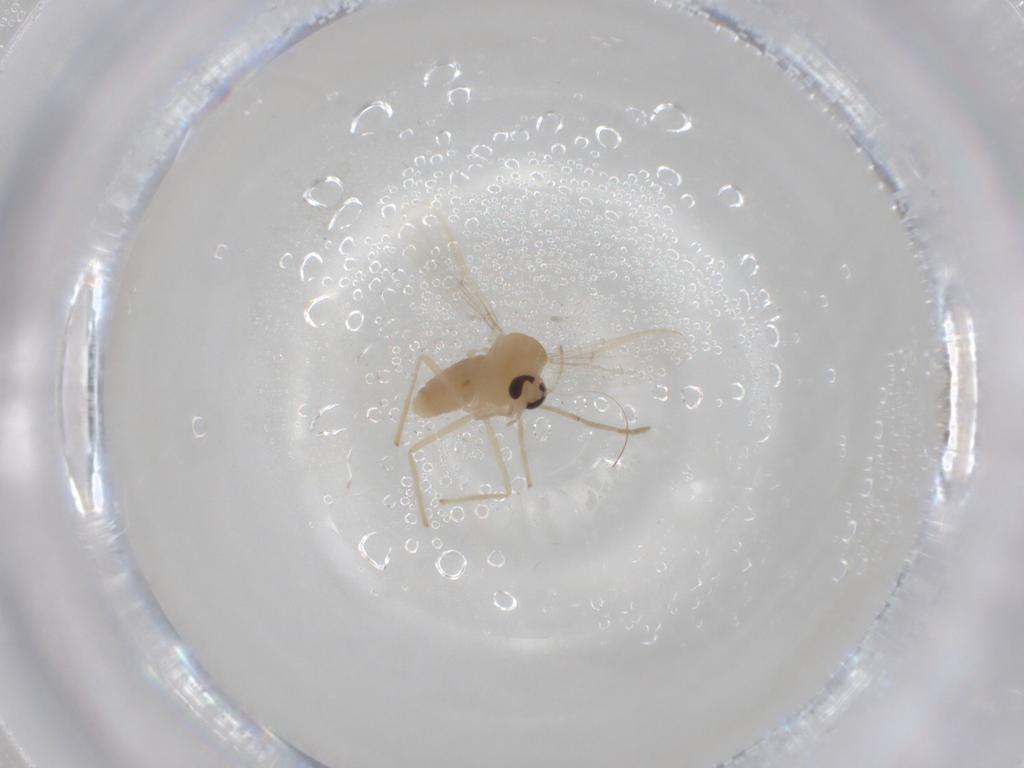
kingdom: Animalia
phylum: Arthropoda
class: Insecta
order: Diptera
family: Chironomidae
